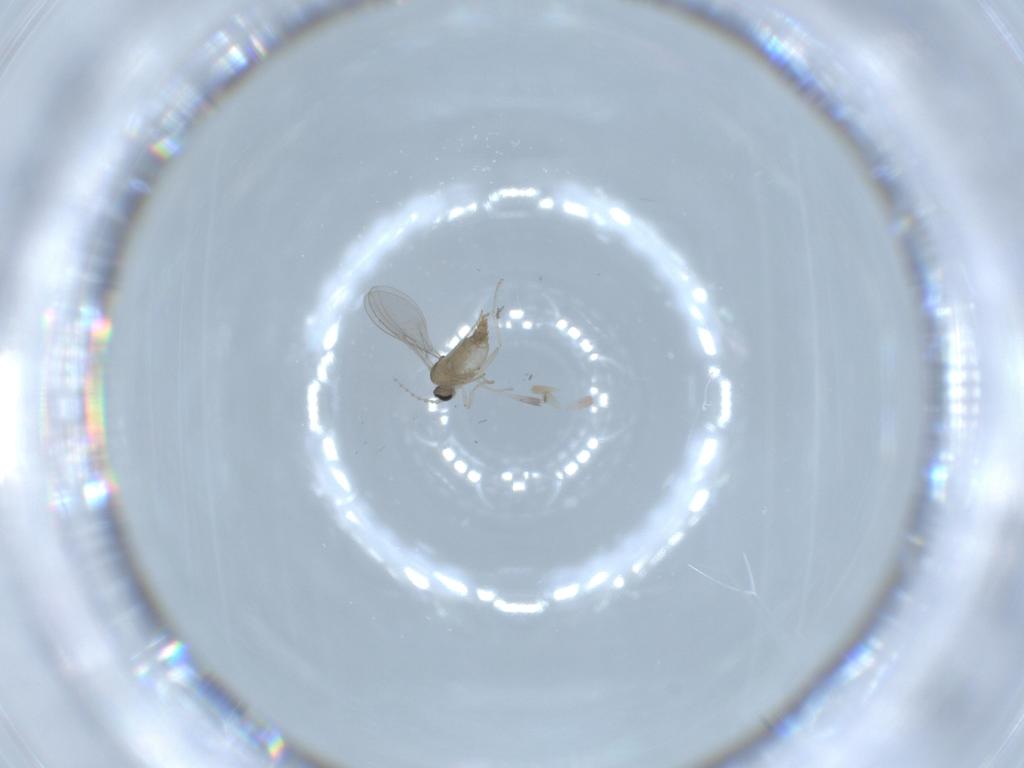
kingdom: Animalia
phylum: Arthropoda
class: Insecta
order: Diptera
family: Cecidomyiidae
